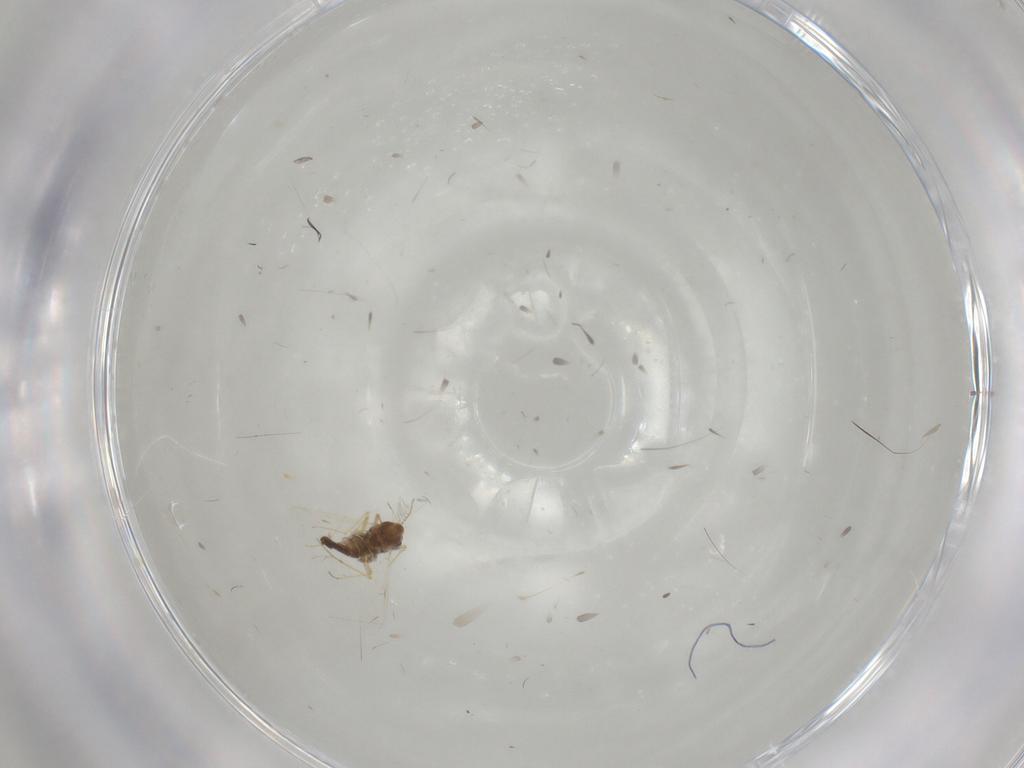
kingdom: Animalia
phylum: Arthropoda
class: Insecta
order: Diptera
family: Chironomidae
